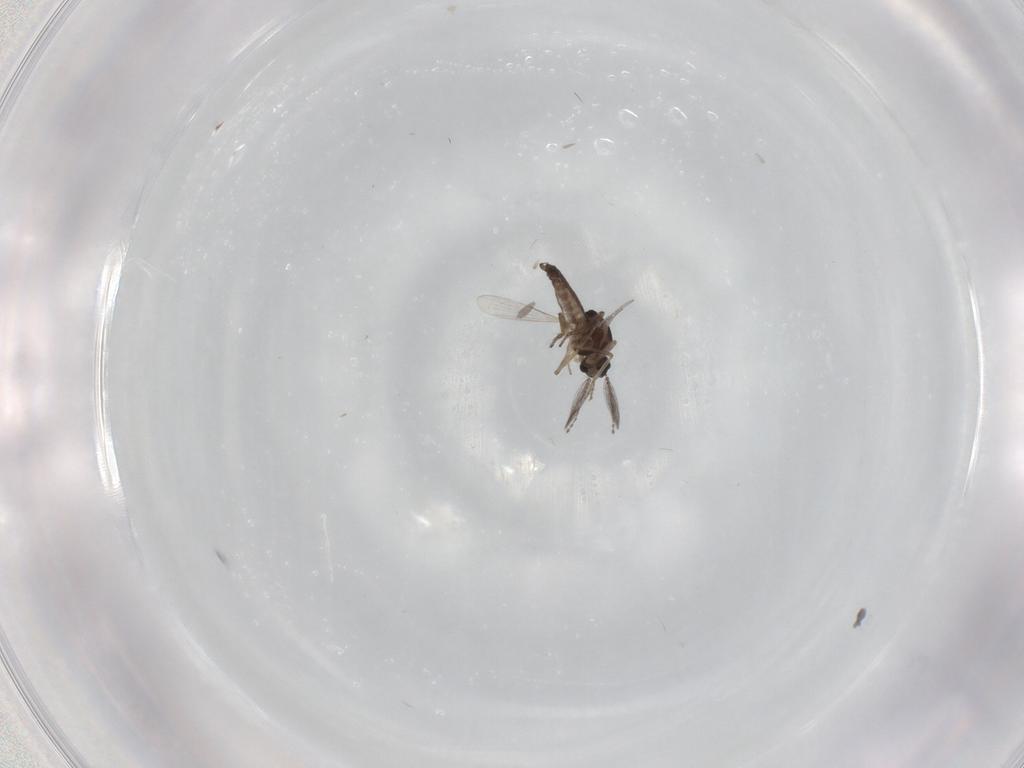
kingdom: Animalia
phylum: Arthropoda
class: Insecta
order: Diptera
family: Ceratopogonidae
